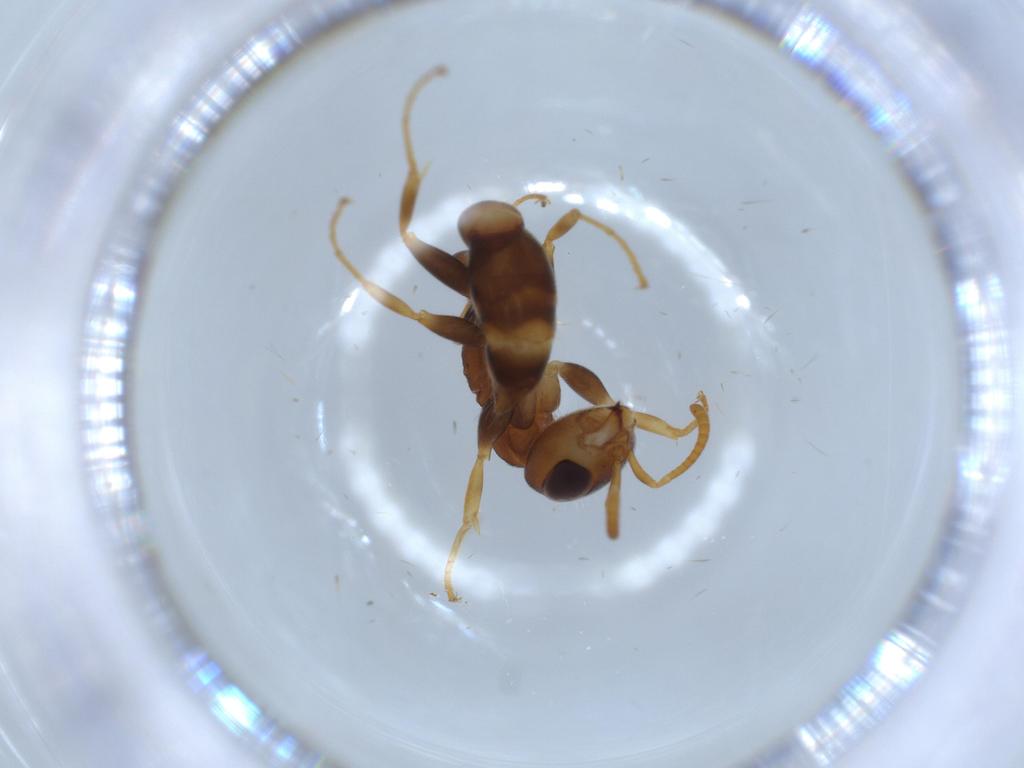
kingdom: Animalia
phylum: Arthropoda
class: Insecta
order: Hymenoptera
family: Formicidae
